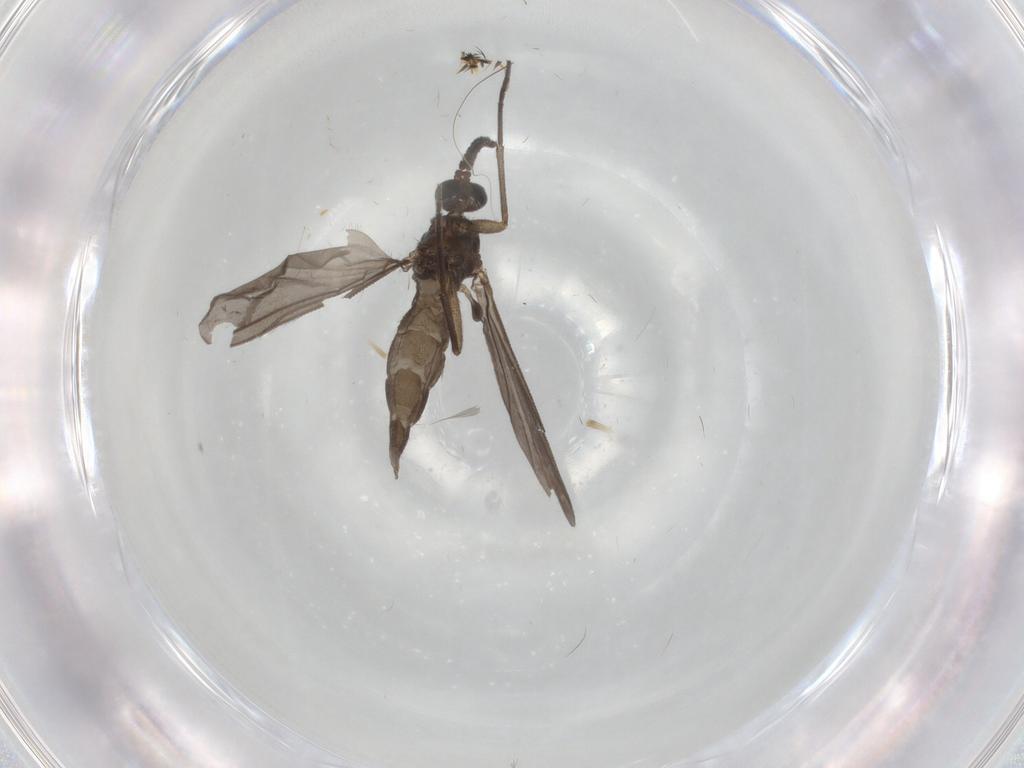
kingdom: Animalia
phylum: Arthropoda
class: Insecta
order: Diptera
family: Sciaridae
